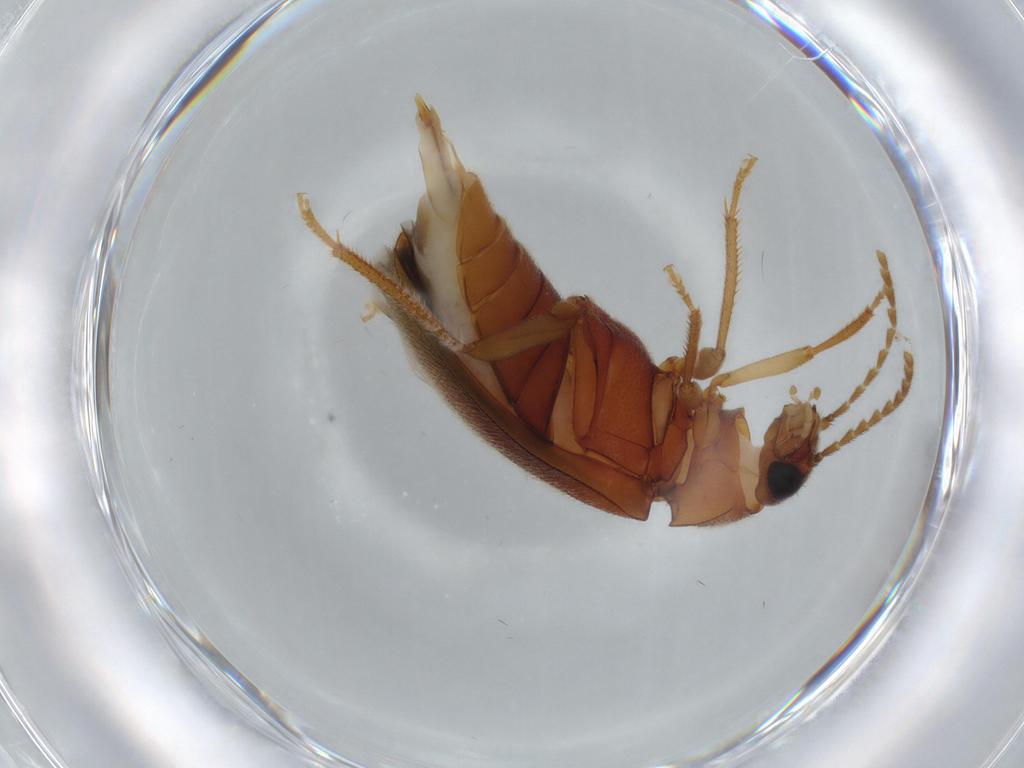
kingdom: Animalia
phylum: Arthropoda
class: Insecta
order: Coleoptera
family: Ptilodactylidae
